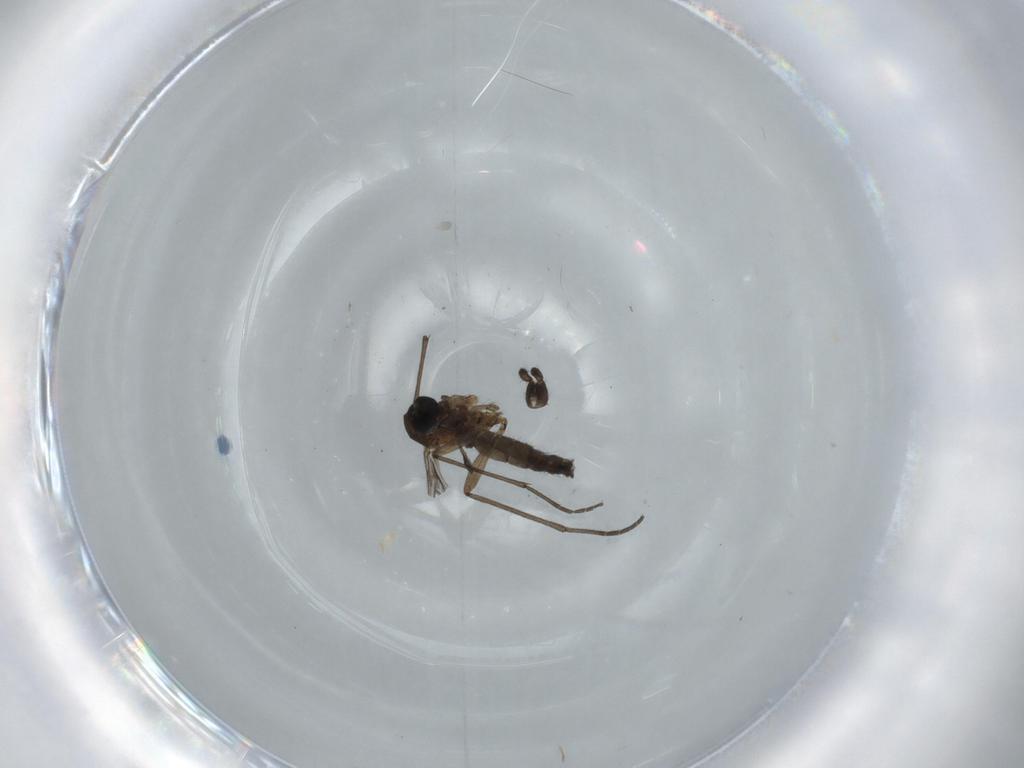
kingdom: Animalia
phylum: Arthropoda
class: Insecta
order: Diptera
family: Sciaridae
